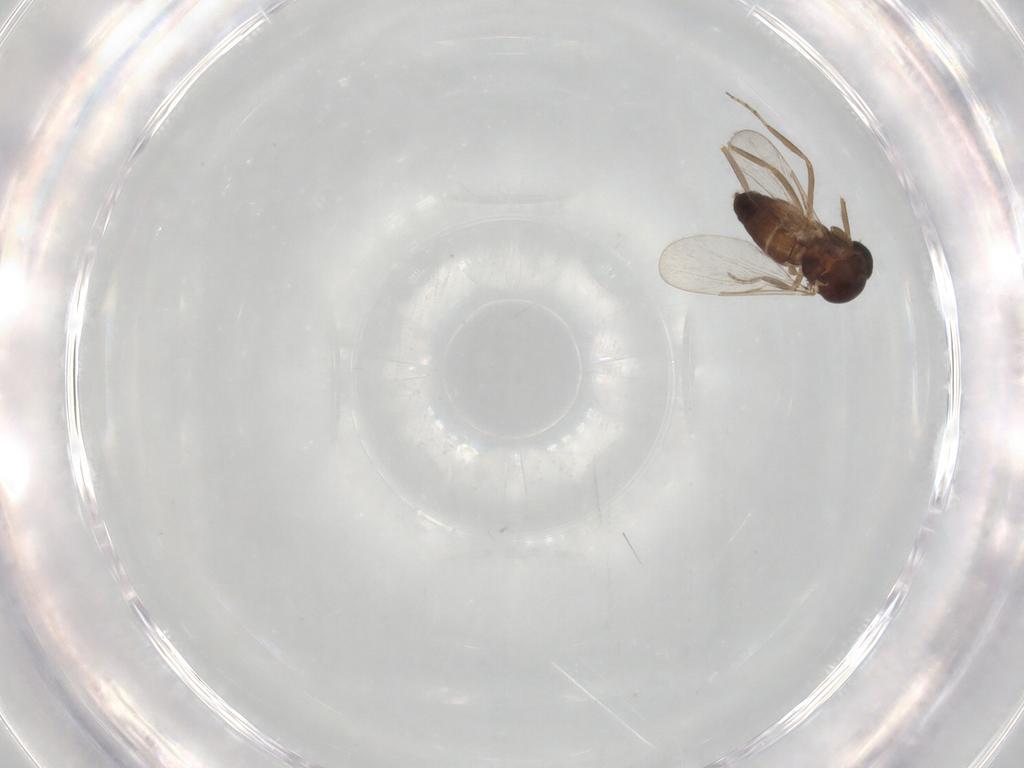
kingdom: Animalia
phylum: Arthropoda
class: Insecta
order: Diptera
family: Ceratopogonidae
